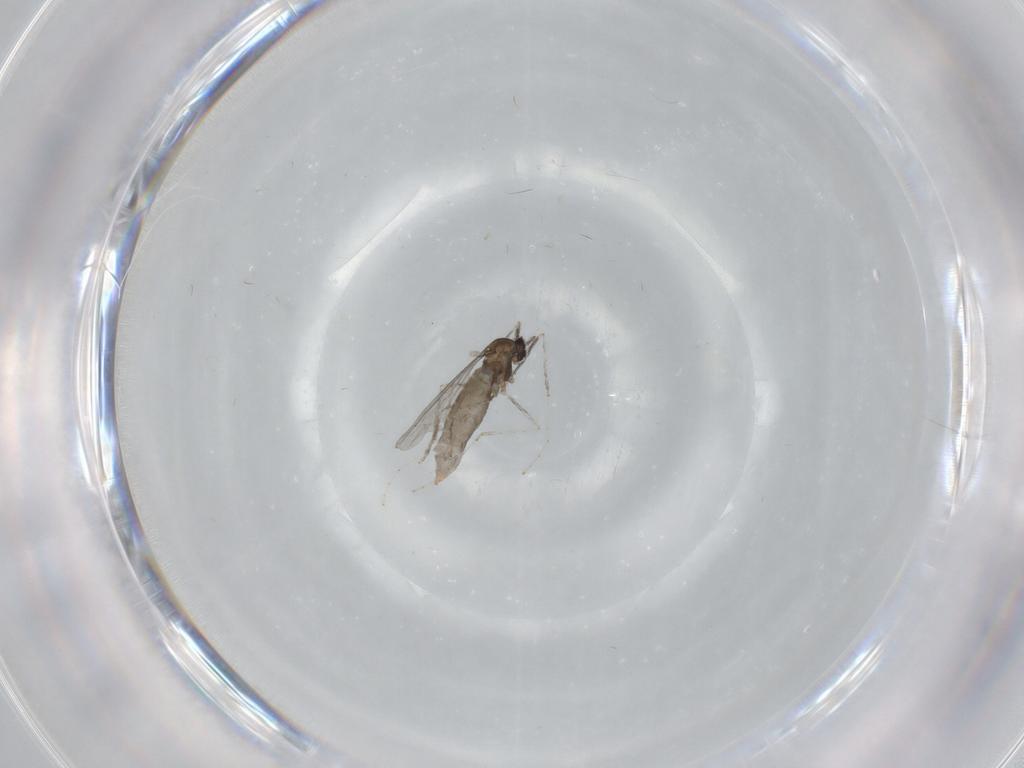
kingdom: Animalia
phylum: Arthropoda
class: Insecta
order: Diptera
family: Cecidomyiidae
